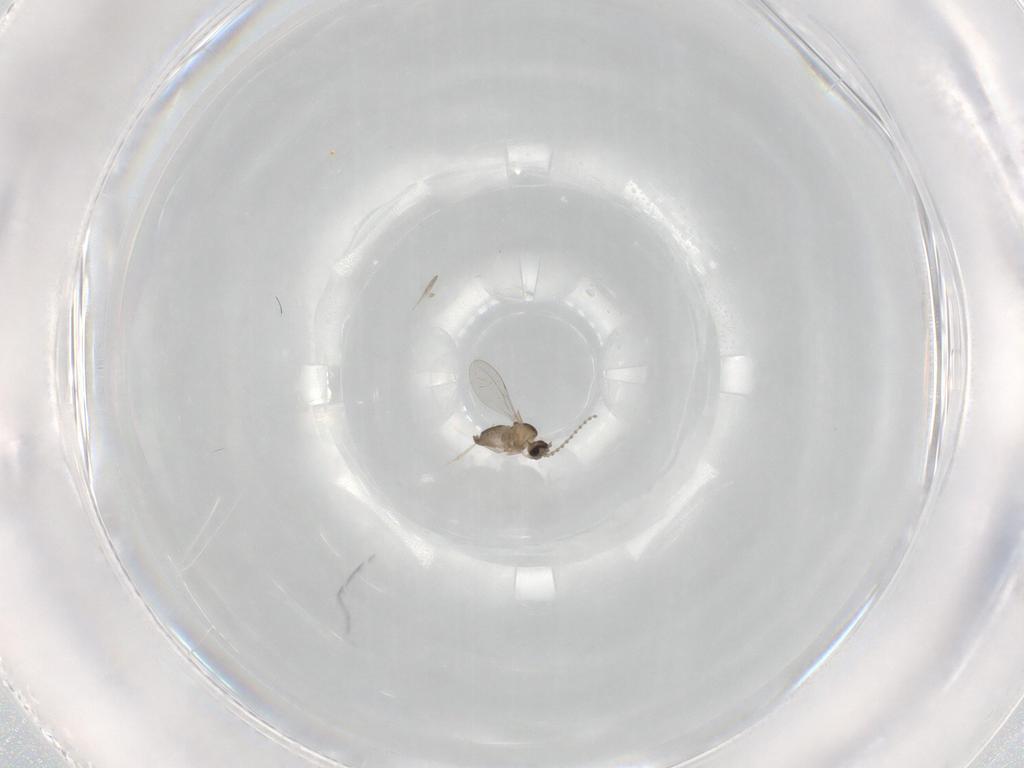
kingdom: Animalia
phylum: Arthropoda
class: Insecta
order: Diptera
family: Cecidomyiidae
